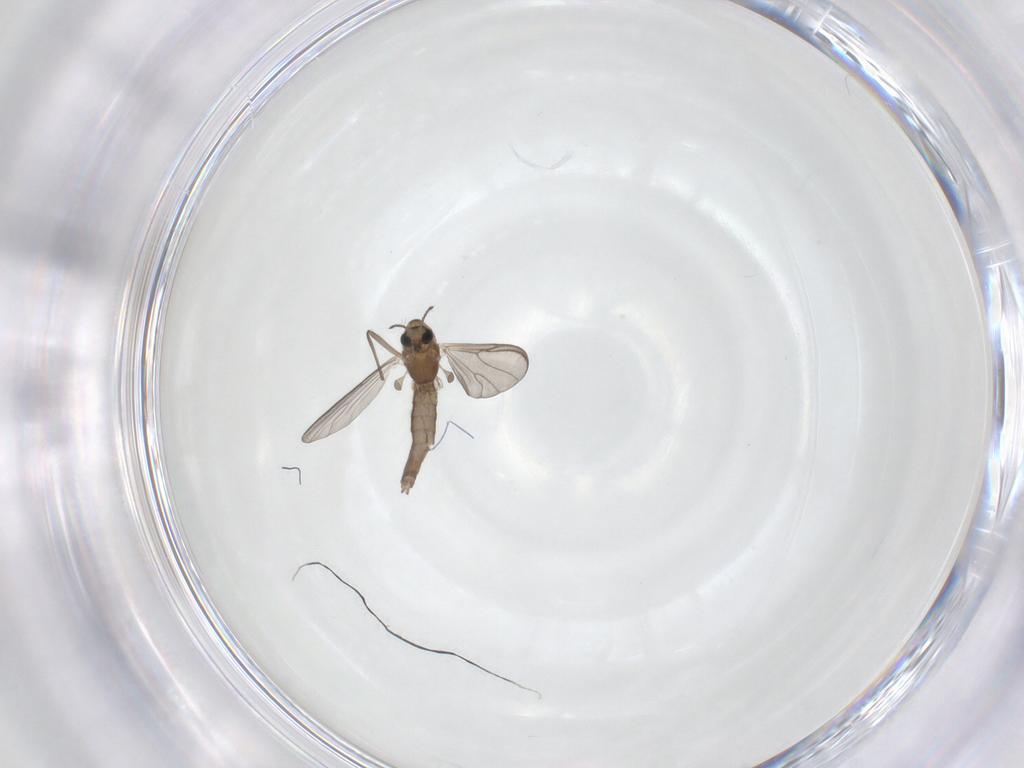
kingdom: Animalia
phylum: Arthropoda
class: Insecta
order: Diptera
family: Chironomidae
